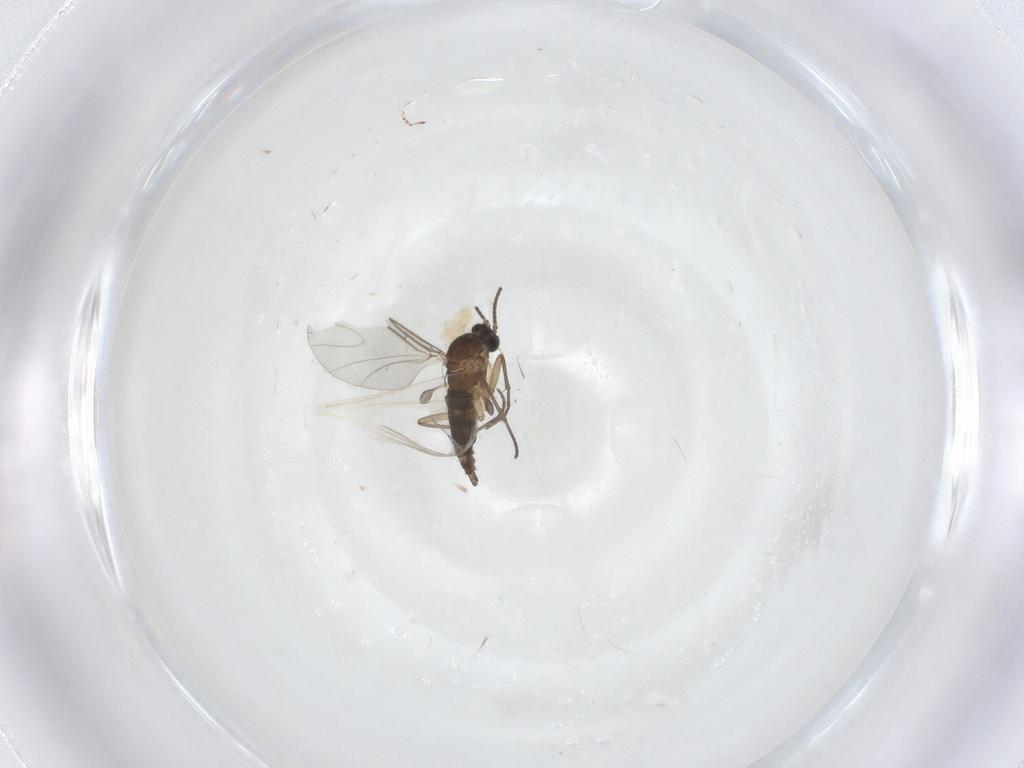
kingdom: Animalia
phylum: Arthropoda
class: Insecta
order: Diptera
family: Cecidomyiidae
